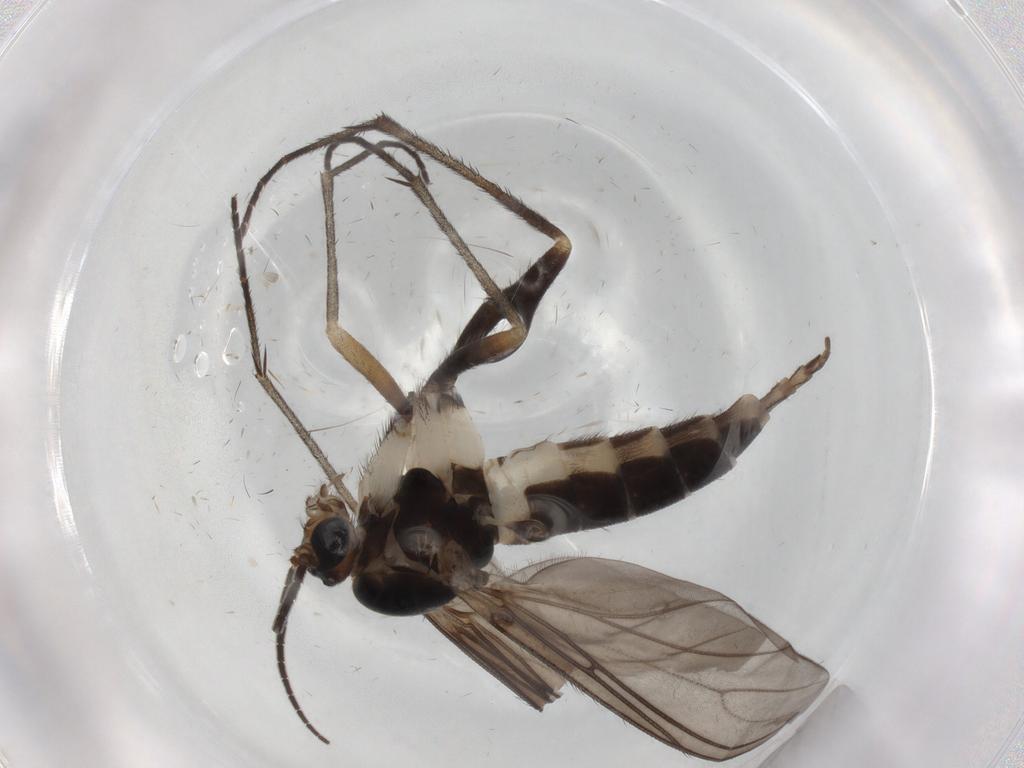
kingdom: Animalia
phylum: Arthropoda
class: Insecta
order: Diptera
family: Sciaridae
